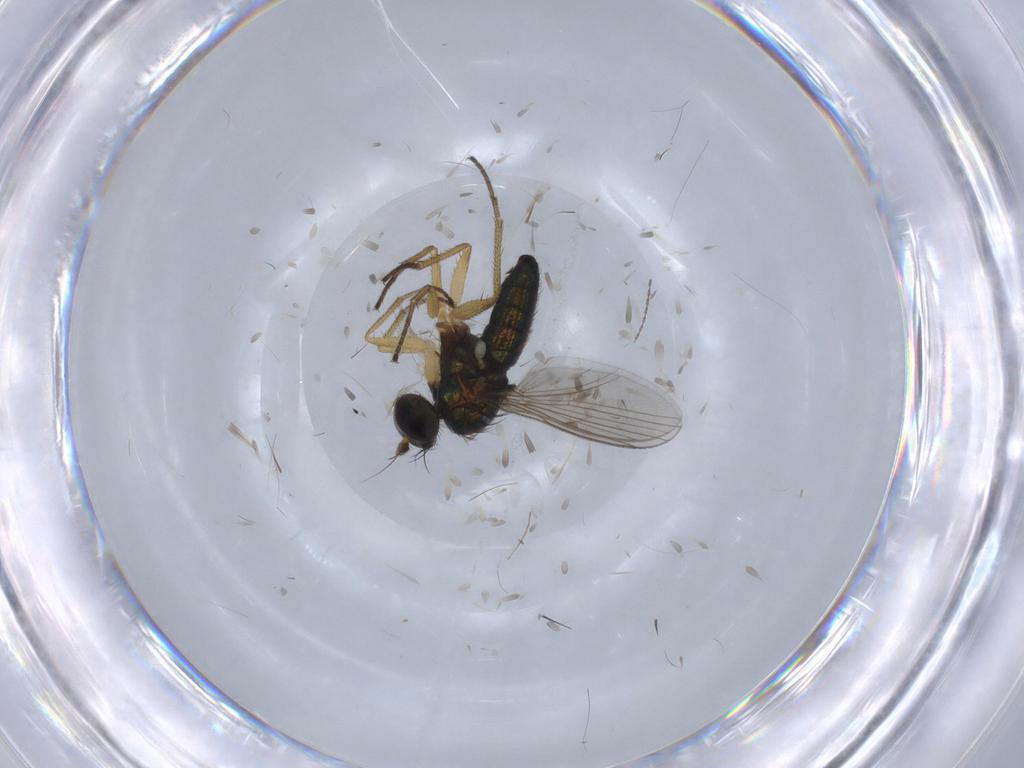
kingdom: Animalia
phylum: Arthropoda
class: Insecta
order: Diptera
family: Cecidomyiidae
